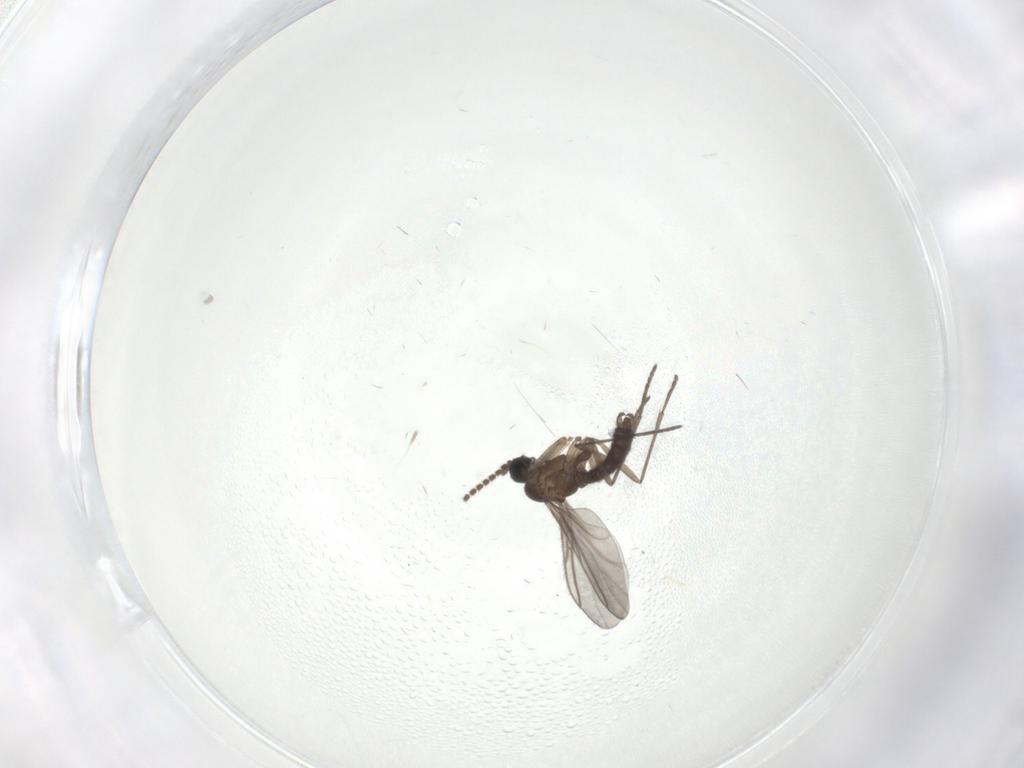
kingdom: Animalia
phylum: Arthropoda
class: Insecta
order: Diptera
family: Sciaridae
